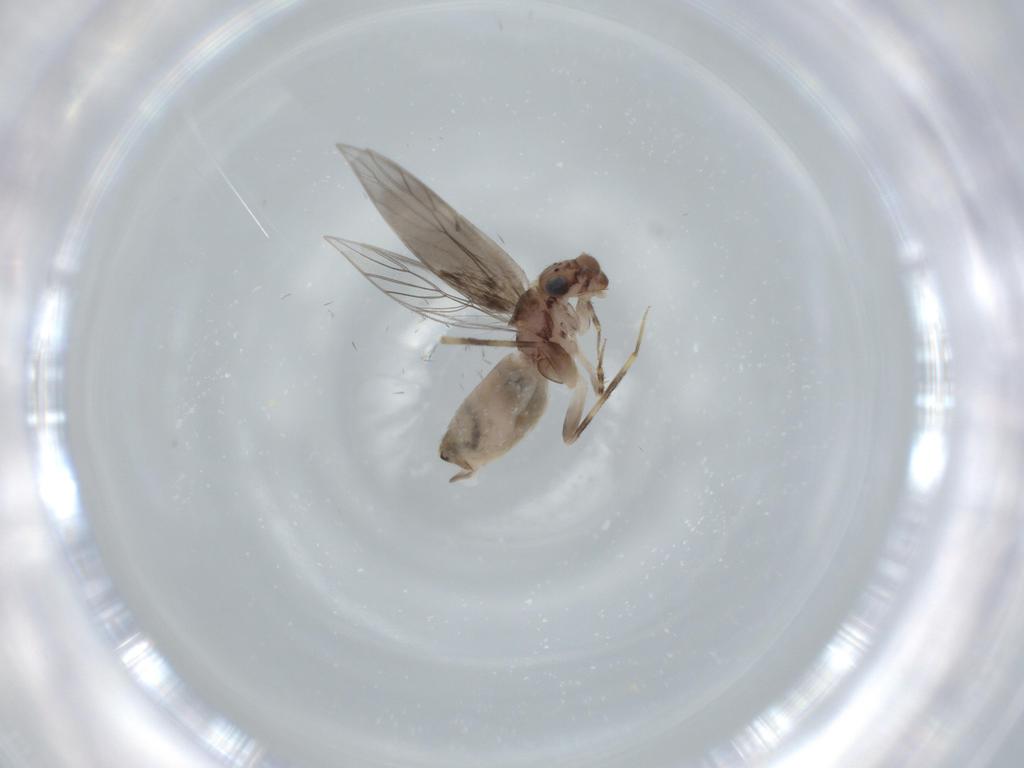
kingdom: Animalia
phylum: Arthropoda
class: Insecta
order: Psocodea
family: Lepidopsocidae
